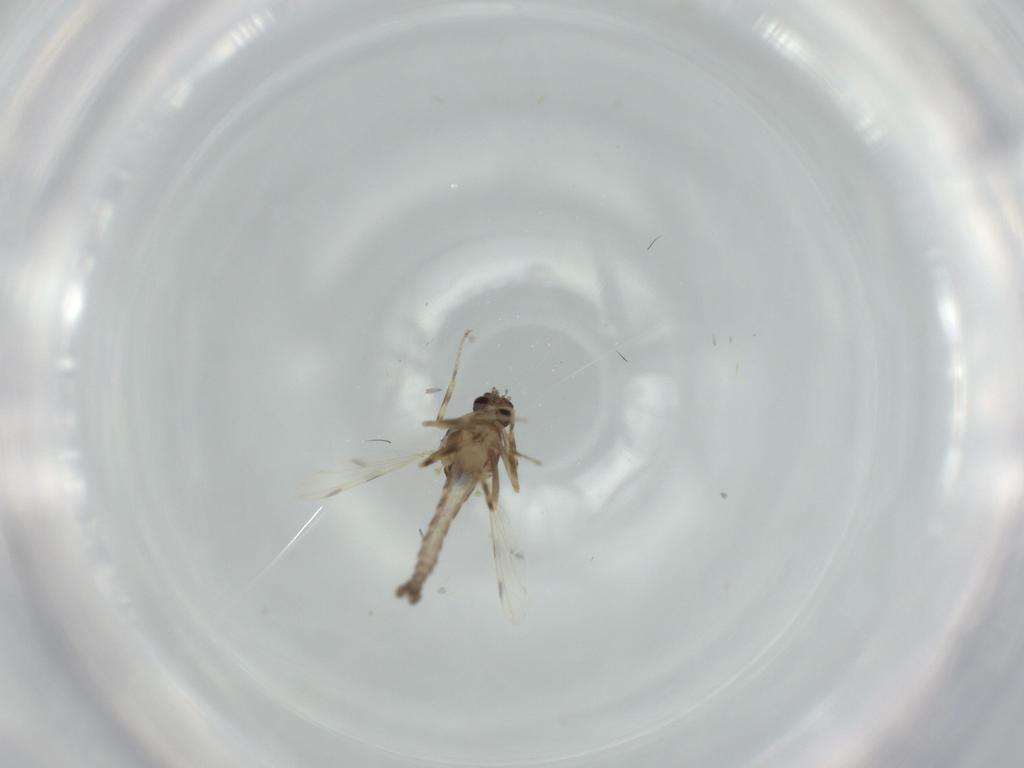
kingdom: Animalia
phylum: Arthropoda
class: Insecta
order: Diptera
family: Ceratopogonidae
